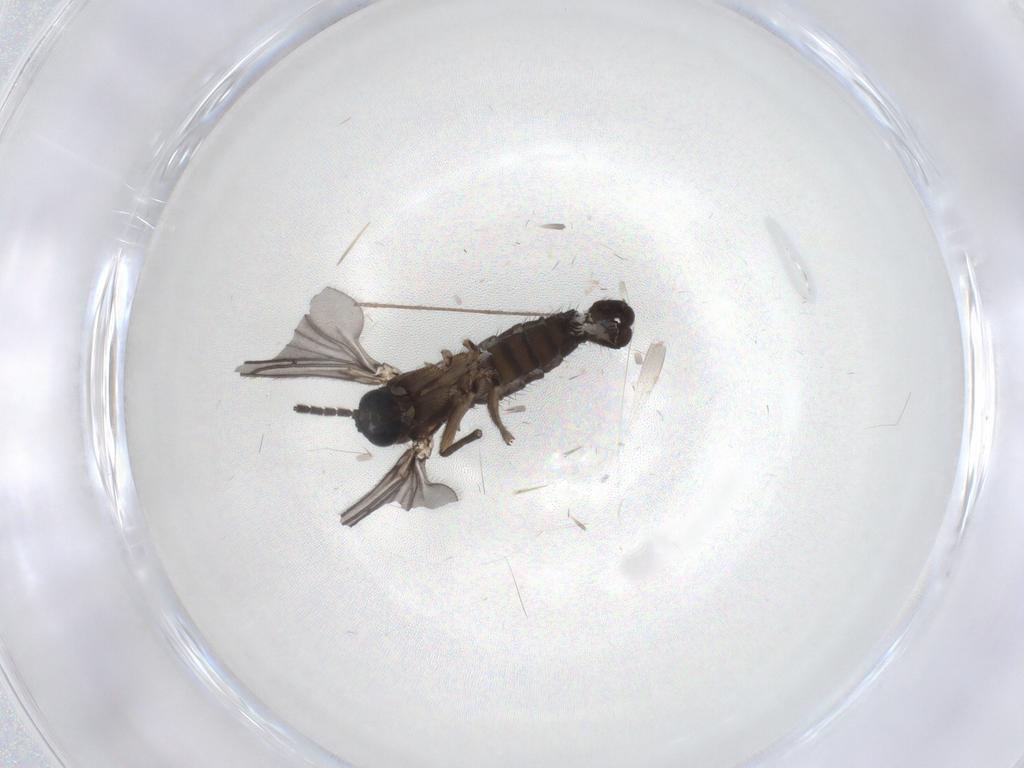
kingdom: Animalia
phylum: Arthropoda
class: Insecta
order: Diptera
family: Sciaridae
